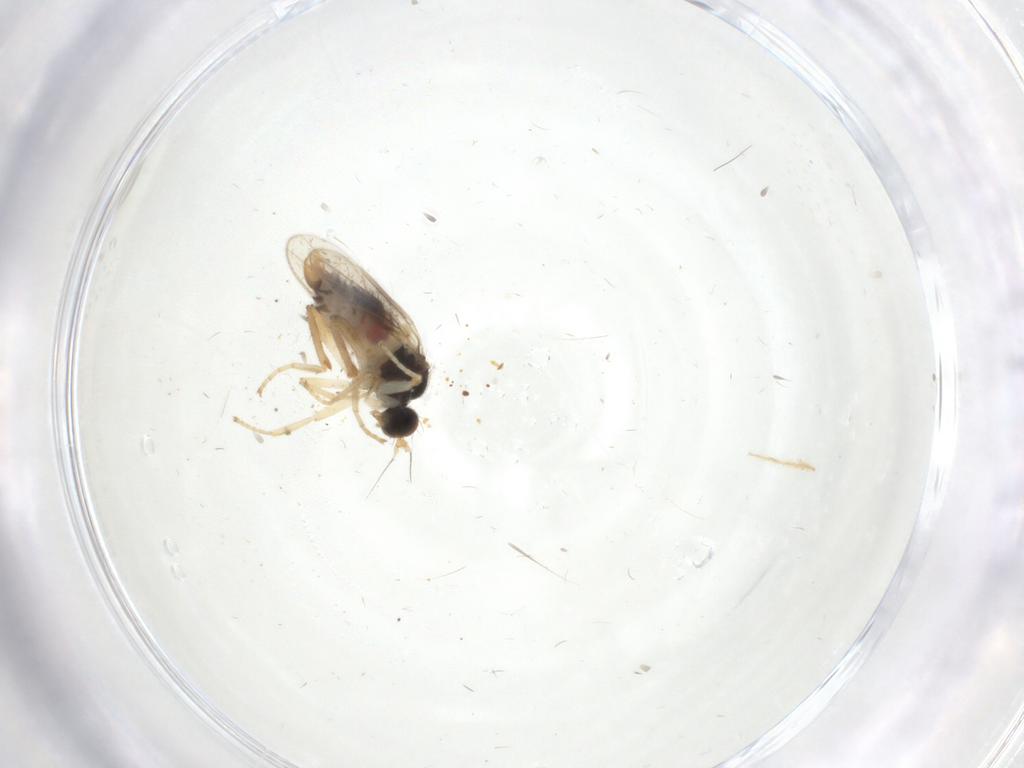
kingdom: Animalia
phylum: Arthropoda
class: Insecta
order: Diptera
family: Hybotidae
